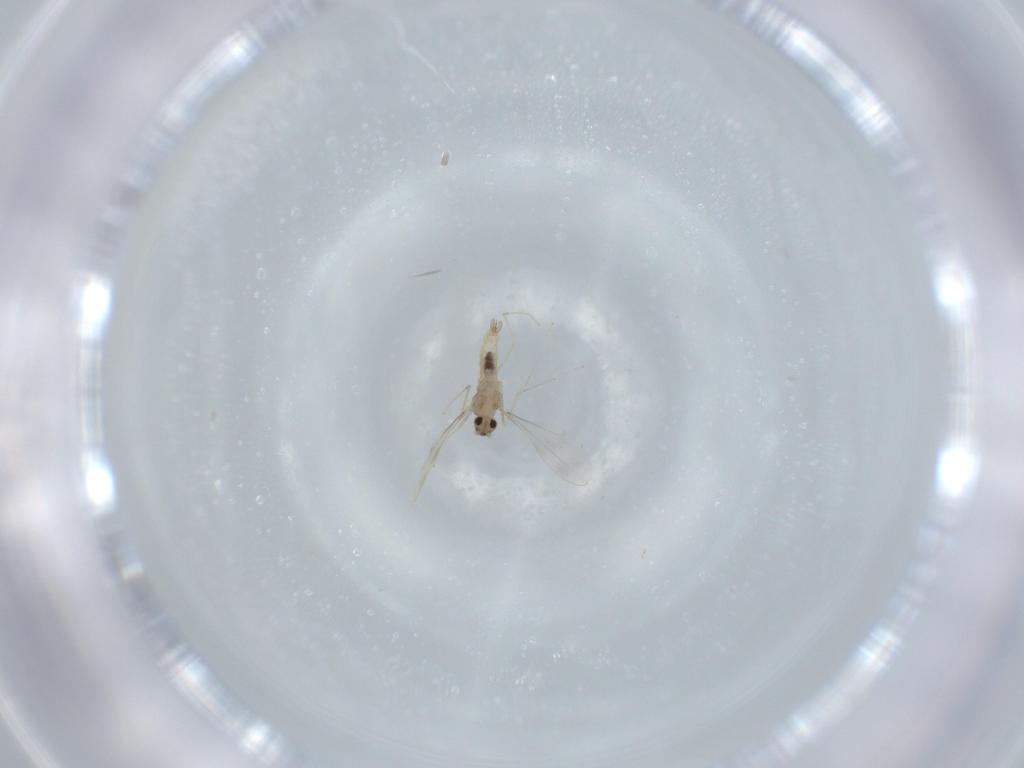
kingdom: Animalia
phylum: Arthropoda
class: Insecta
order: Diptera
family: Cecidomyiidae
